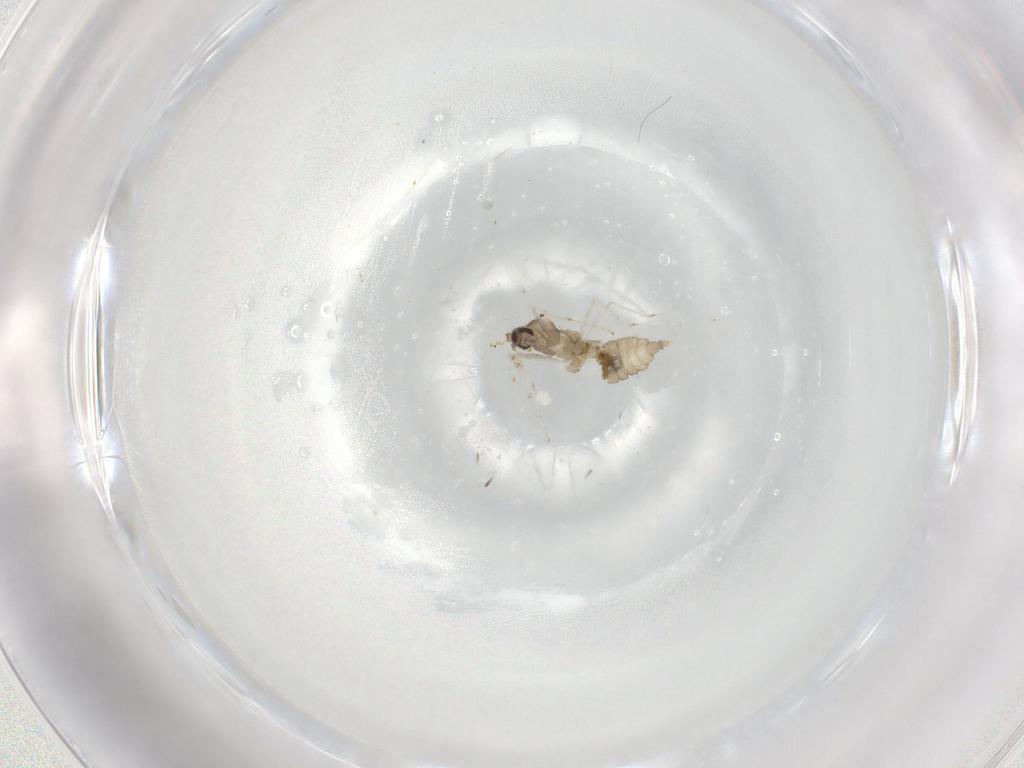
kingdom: Animalia
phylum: Arthropoda
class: Insecta
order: Diptera
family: Cecidomyiidae
